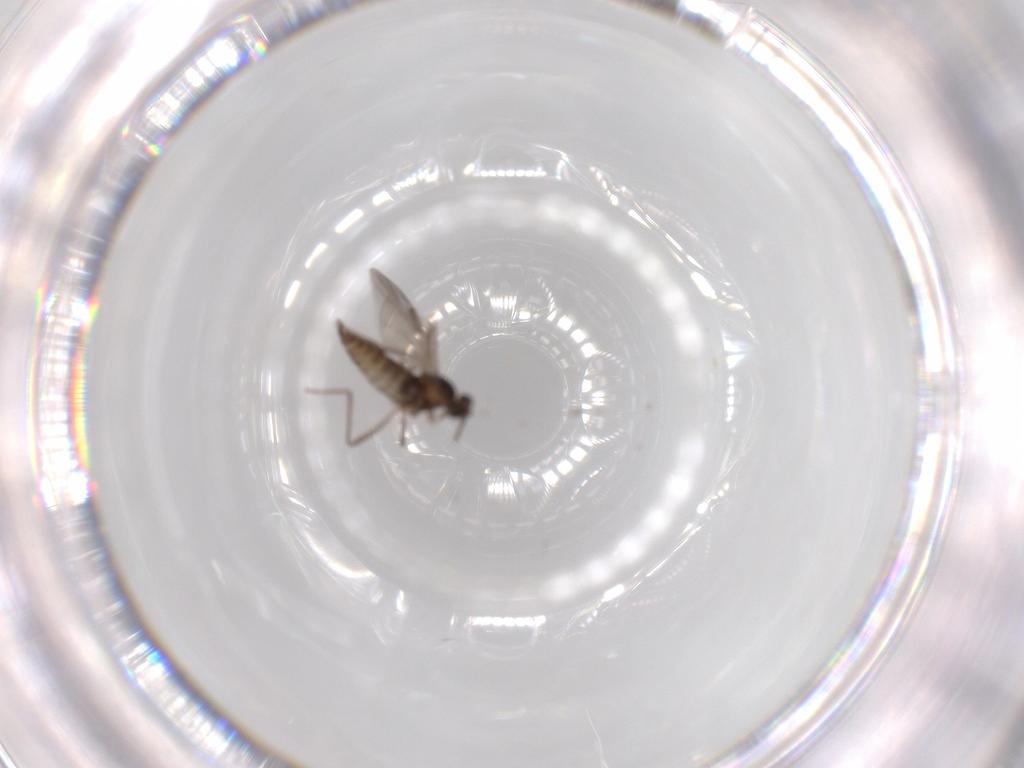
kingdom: Animalia
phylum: Arthropoda
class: Insecta
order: Diptera
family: Cecidomyiidae
